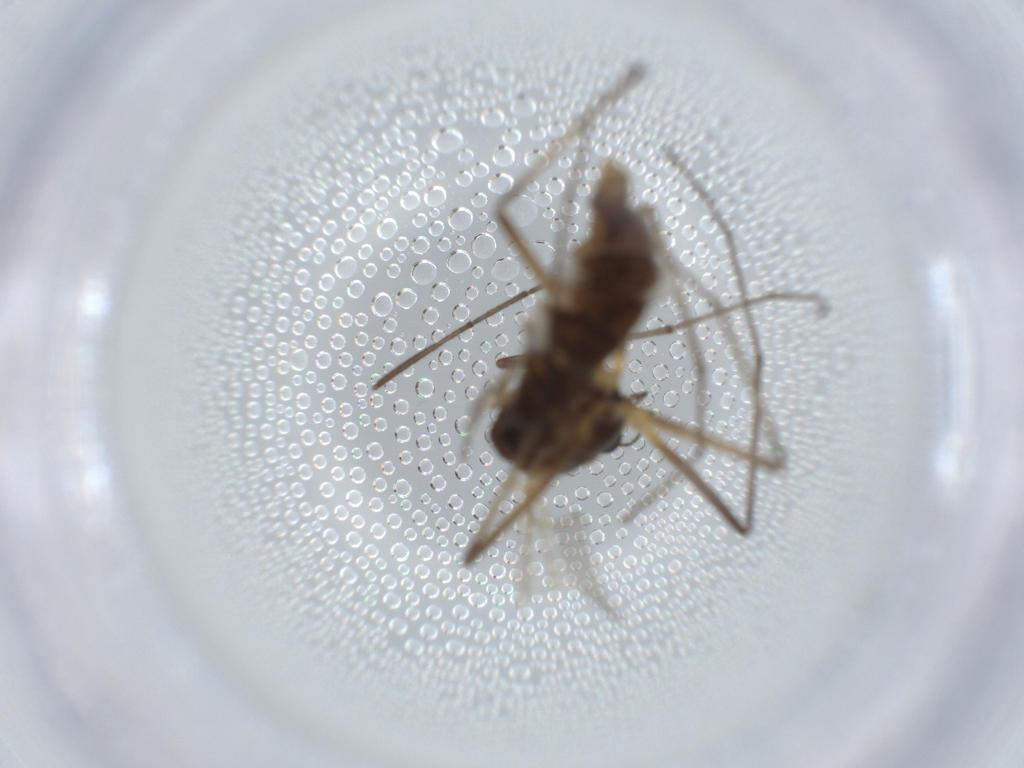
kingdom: Animalia
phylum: Arthropoda
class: Insecta
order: Diptera
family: Chironomidae
